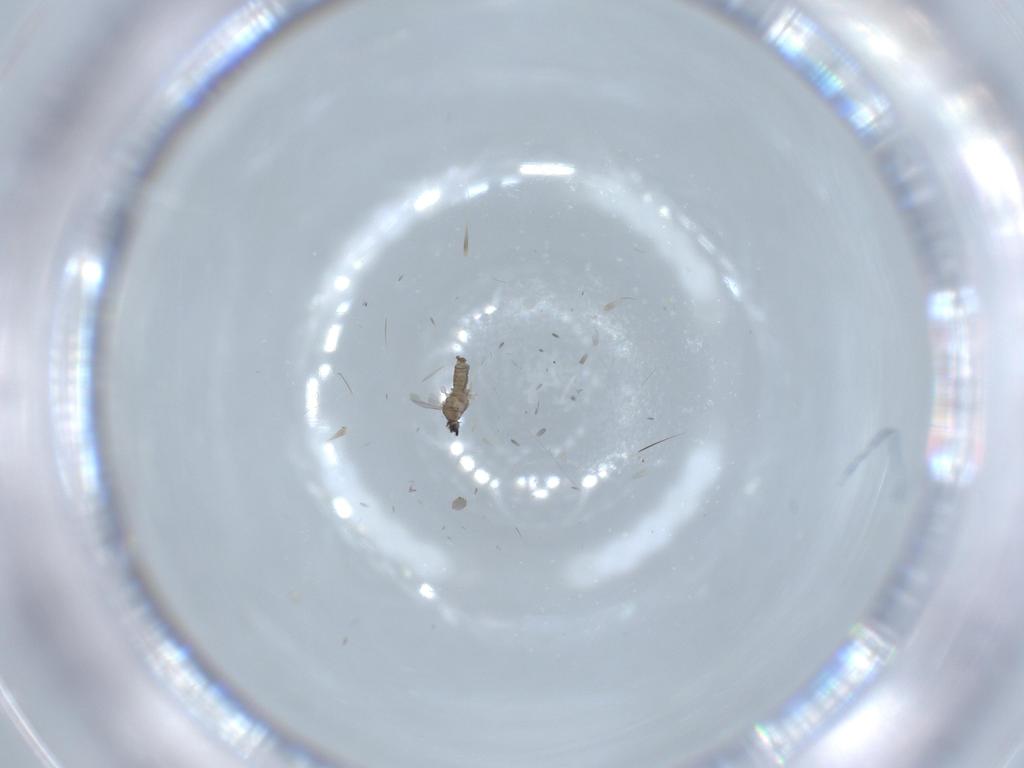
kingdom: Animalia
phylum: Arthropoda
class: Insecta
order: Diptera
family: Cecidomyiidae
